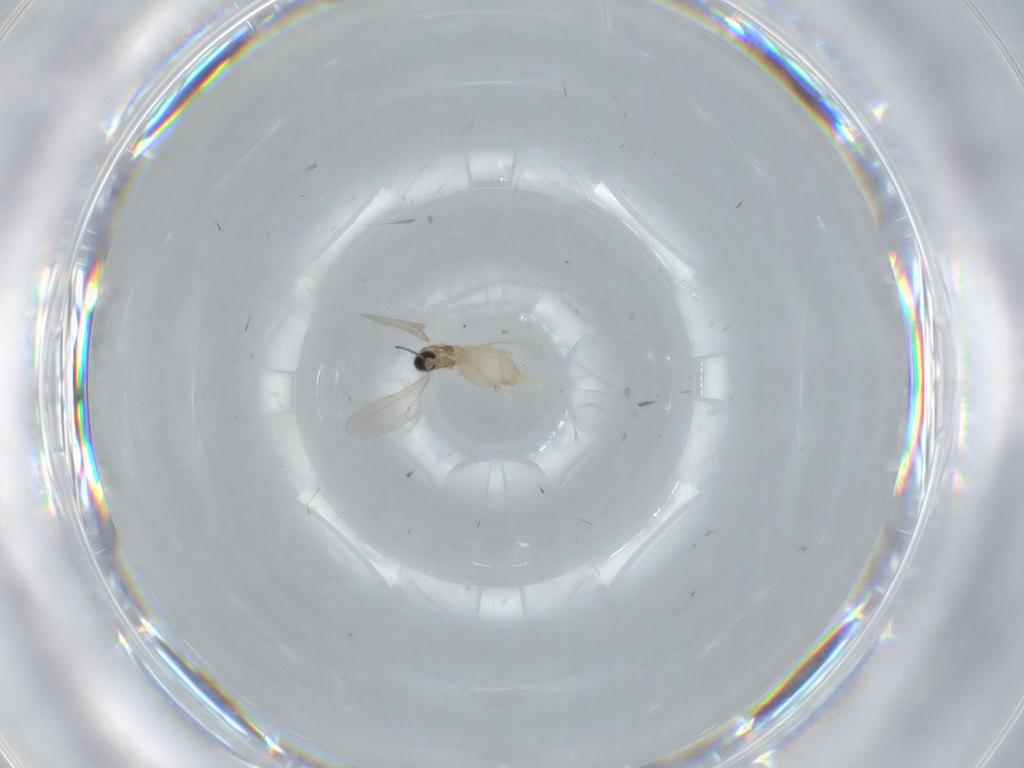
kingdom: Animalia
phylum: Arthropoda
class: Insecta
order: Diptera
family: Cecidomyiidae
